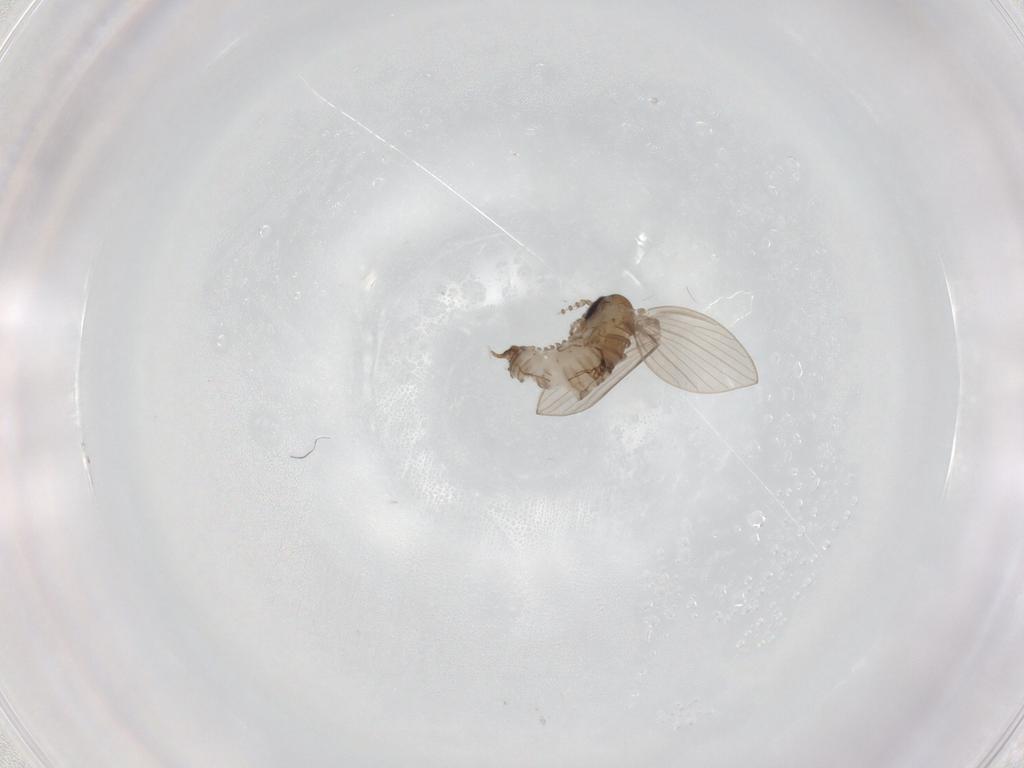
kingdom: Animalia
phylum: Arthropoda
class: Insecta
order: Diptera
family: Psychodidae
